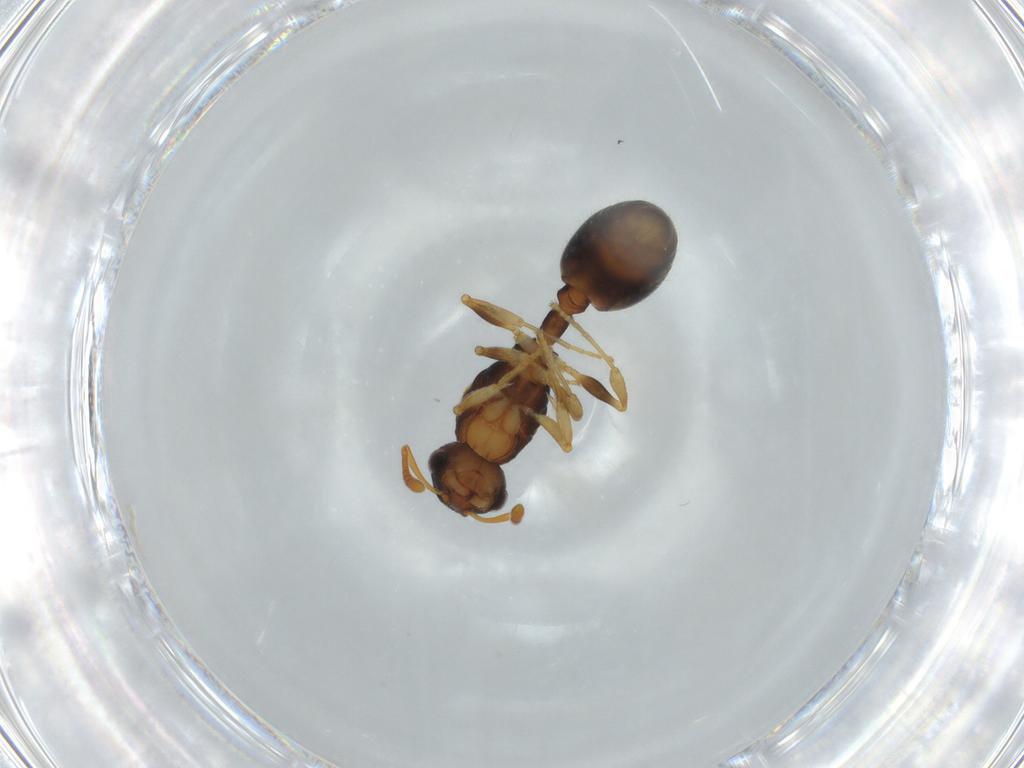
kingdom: Animalia
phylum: Arthropoda
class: Insecta
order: Hymenoptera
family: Formicidae
